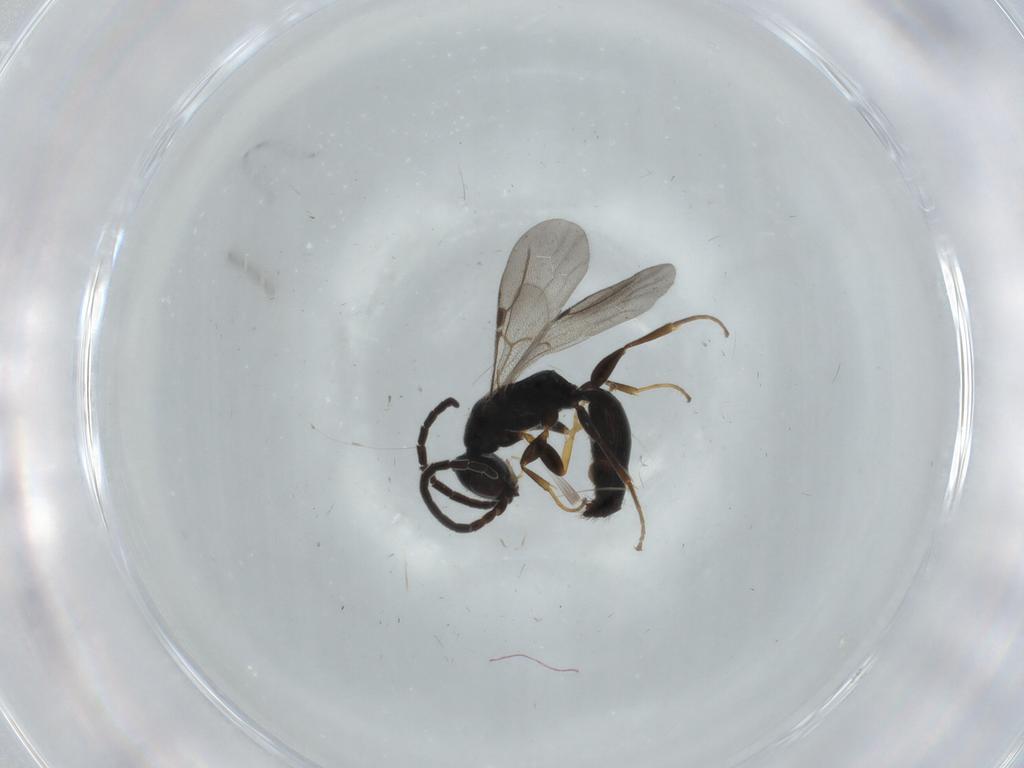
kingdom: Animalia
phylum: Arthropoda
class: Insecta
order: Hymenoptera
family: Bethylidae
